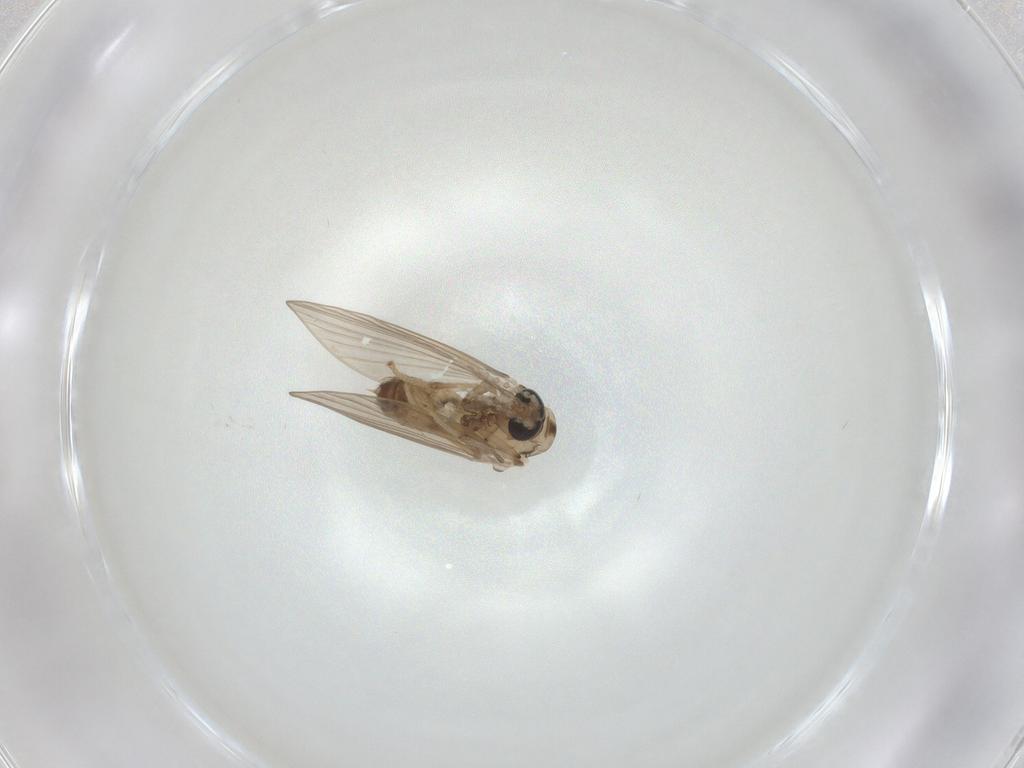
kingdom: Animalia
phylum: Arthropoda
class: Insecta
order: Diptera
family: Psychodidae
